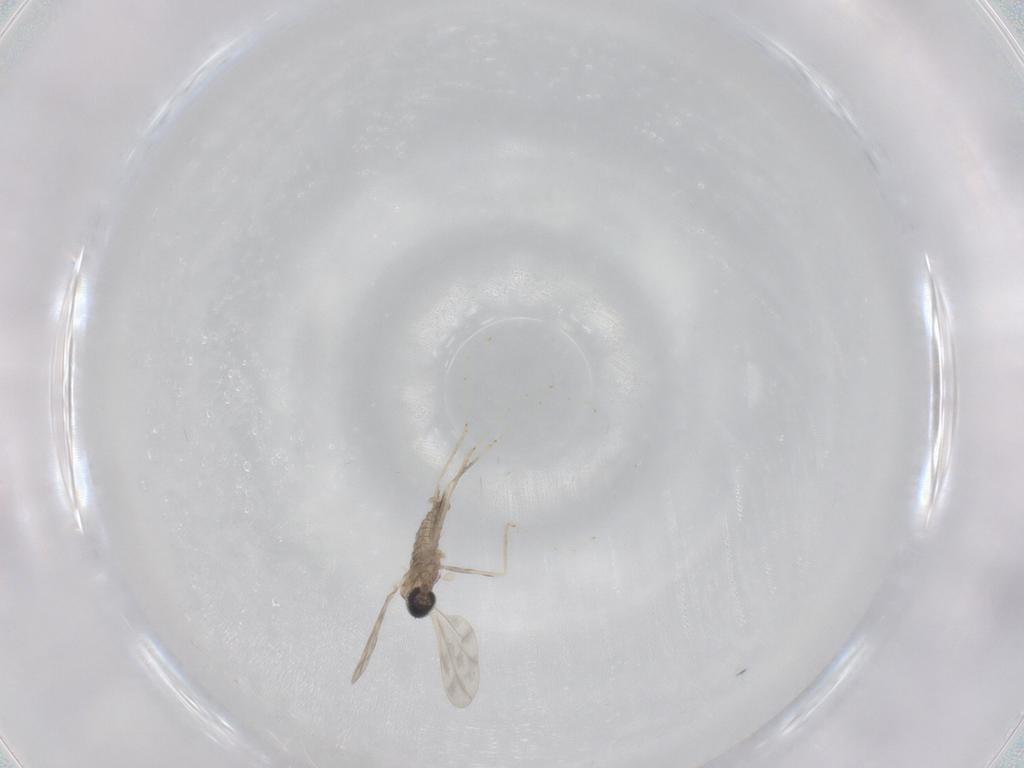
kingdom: Animalia
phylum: Arthropoda
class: Insecta
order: Diptera
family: Cecidomyiidae
